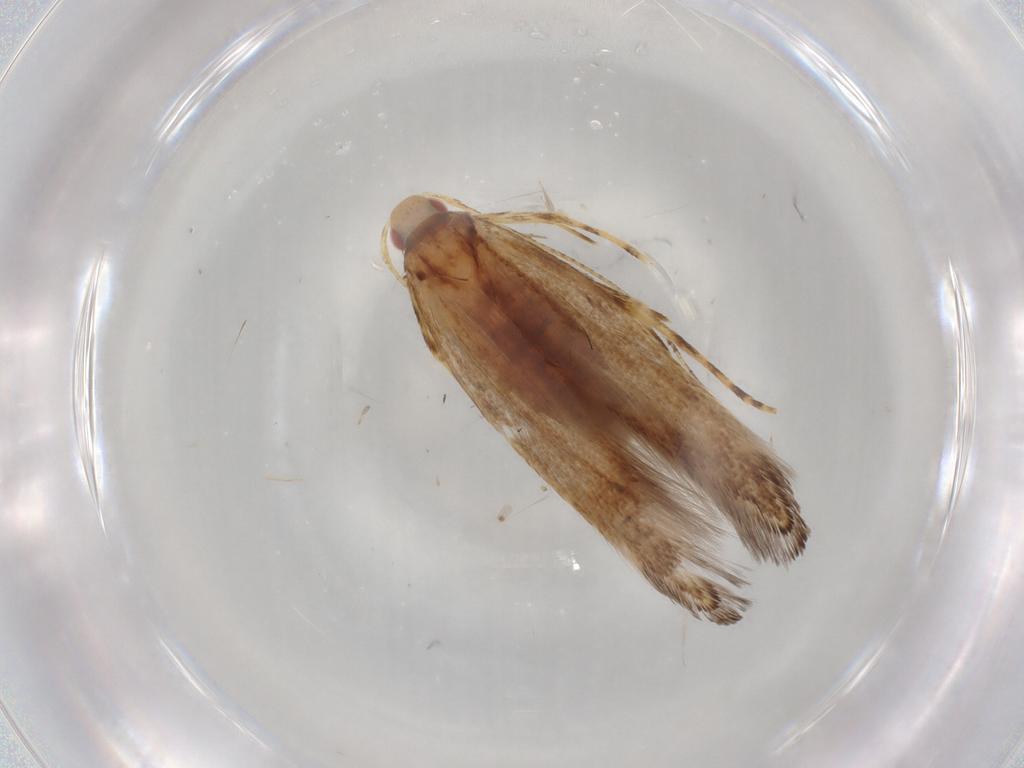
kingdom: Animalia
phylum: Arthropoda
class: Insecta
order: Lepidoptera
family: Cosmopterigidae
